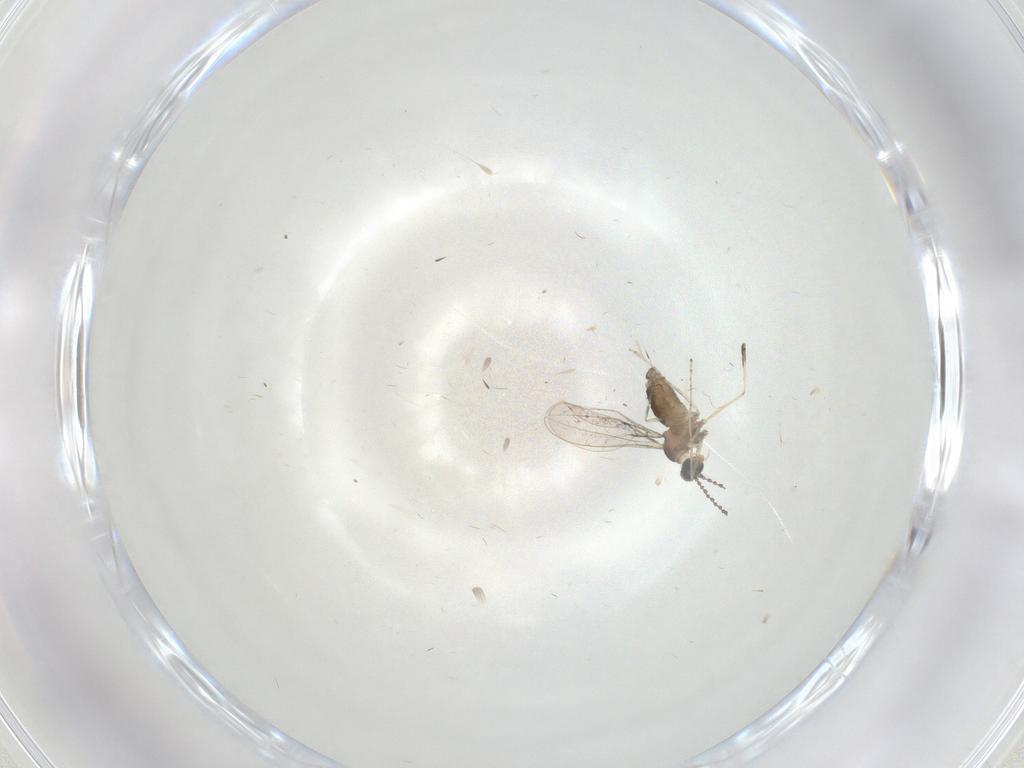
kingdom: Animalia
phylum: Arthropoda
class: Insecta
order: Diptera
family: Cecidomyiidae
